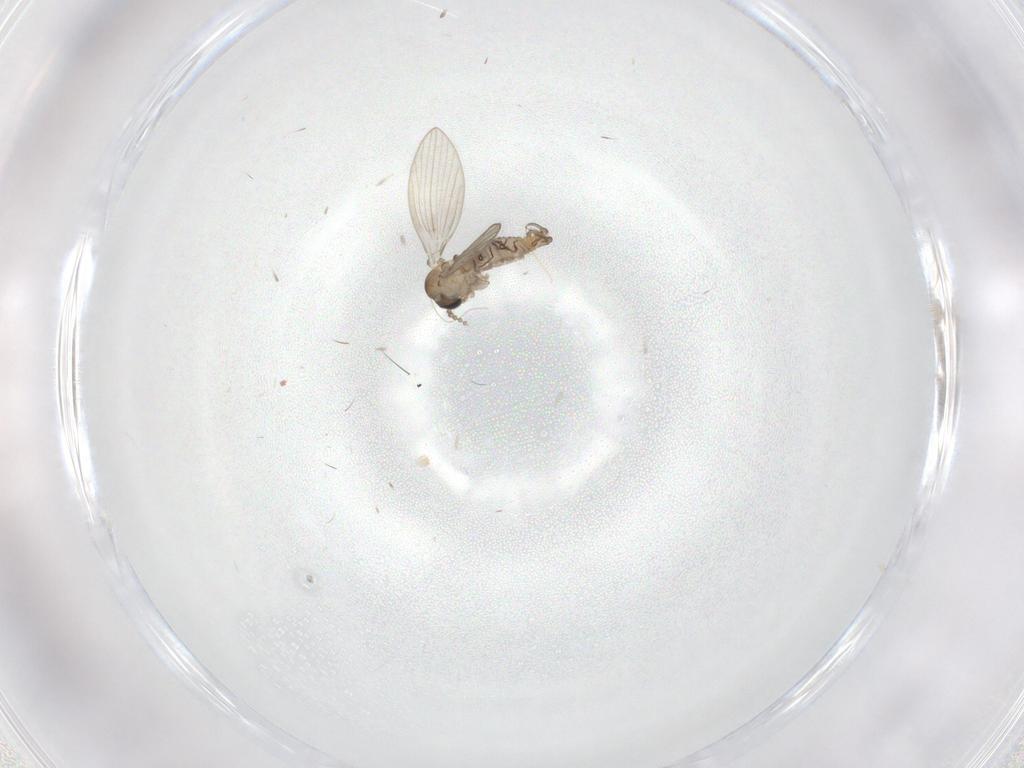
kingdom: Animalia
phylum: Arthropoda
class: Insecta
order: Diptera
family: Psychodidae
